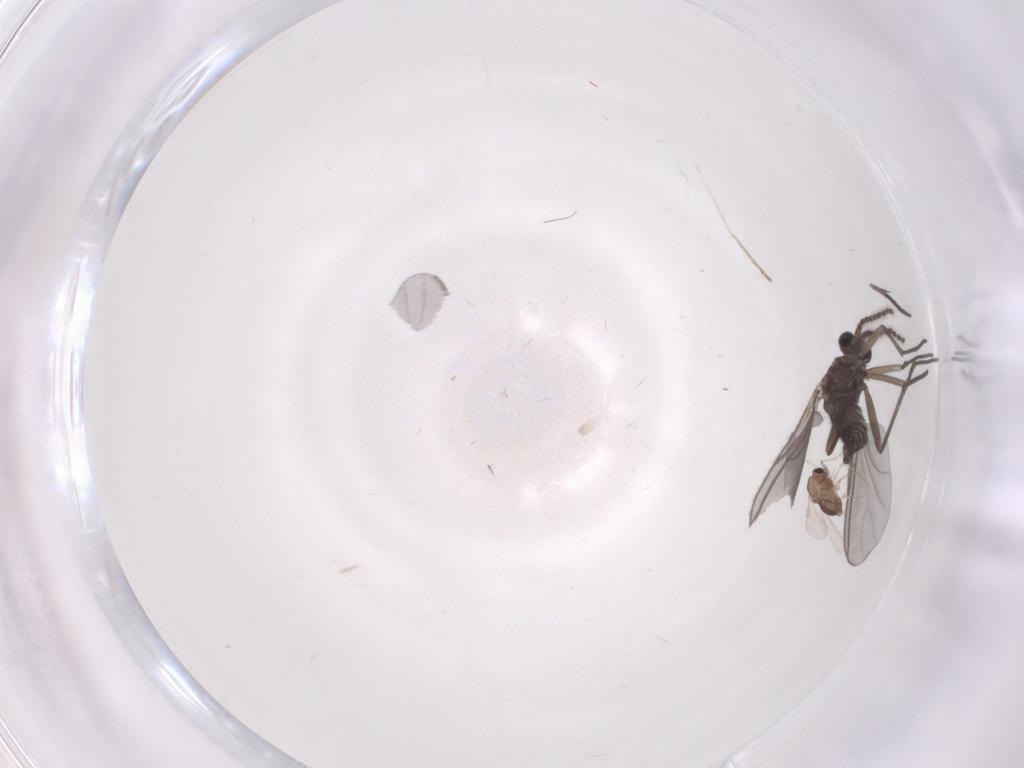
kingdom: Animalia
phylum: Arthropoda
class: Insecta
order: Diptera
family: Sciaridae
